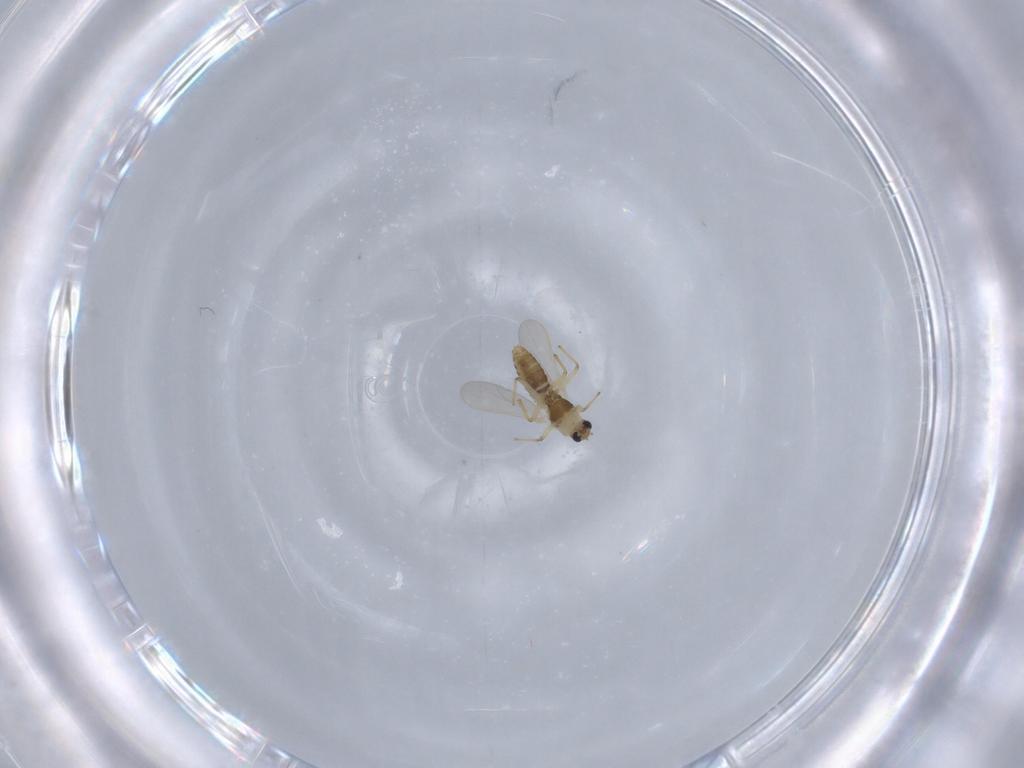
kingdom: Animalia
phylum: Arthropoda
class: Insecta
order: Diptera
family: Chironomidae
